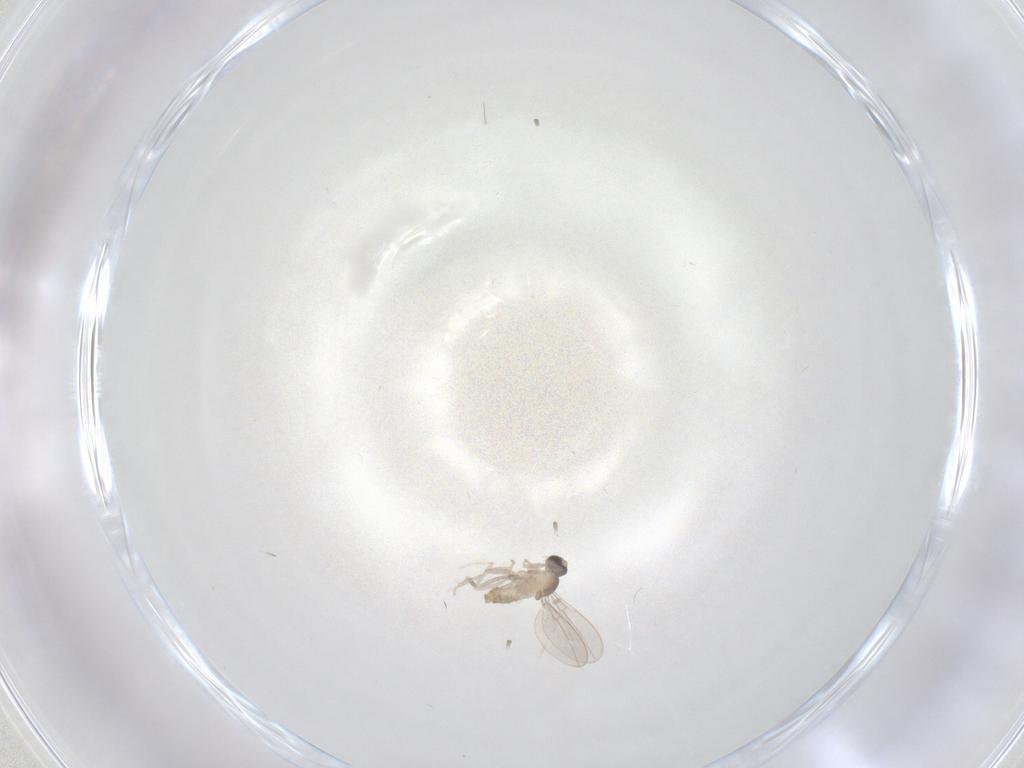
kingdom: Animalia
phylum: Arthropoda
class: Insecta
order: Diptera
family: Cecidomyiidae
